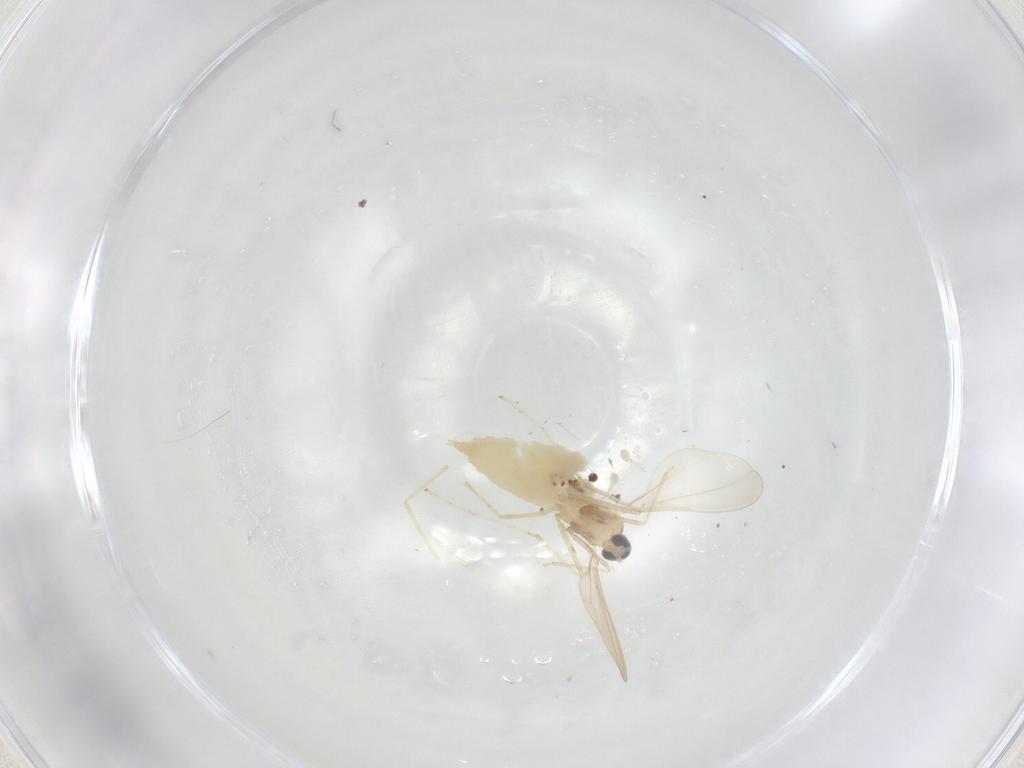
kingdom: Animalia
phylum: Arthropoda
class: Insecta
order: Diptera
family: Cecidomyiidae
